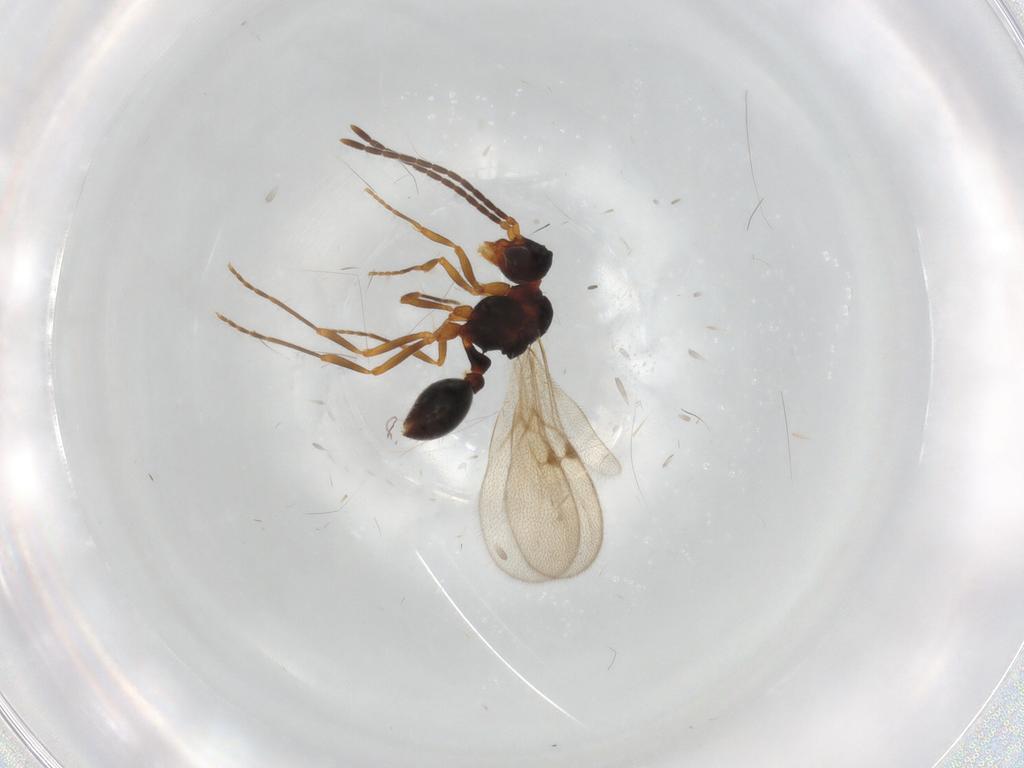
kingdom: Animalia
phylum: Arthropoda
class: Insecta
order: Hymenoptera
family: Formicidae
